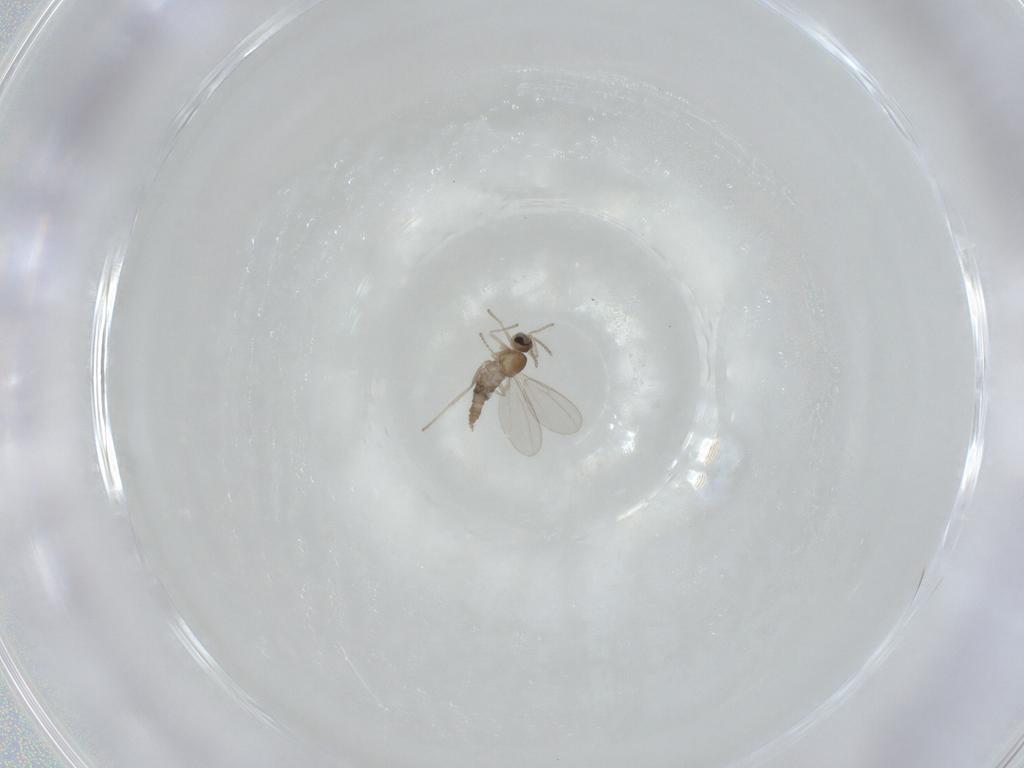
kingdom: Animalia
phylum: Arthropoda
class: Insecta
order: Diptera
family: Cecidomyiidae
